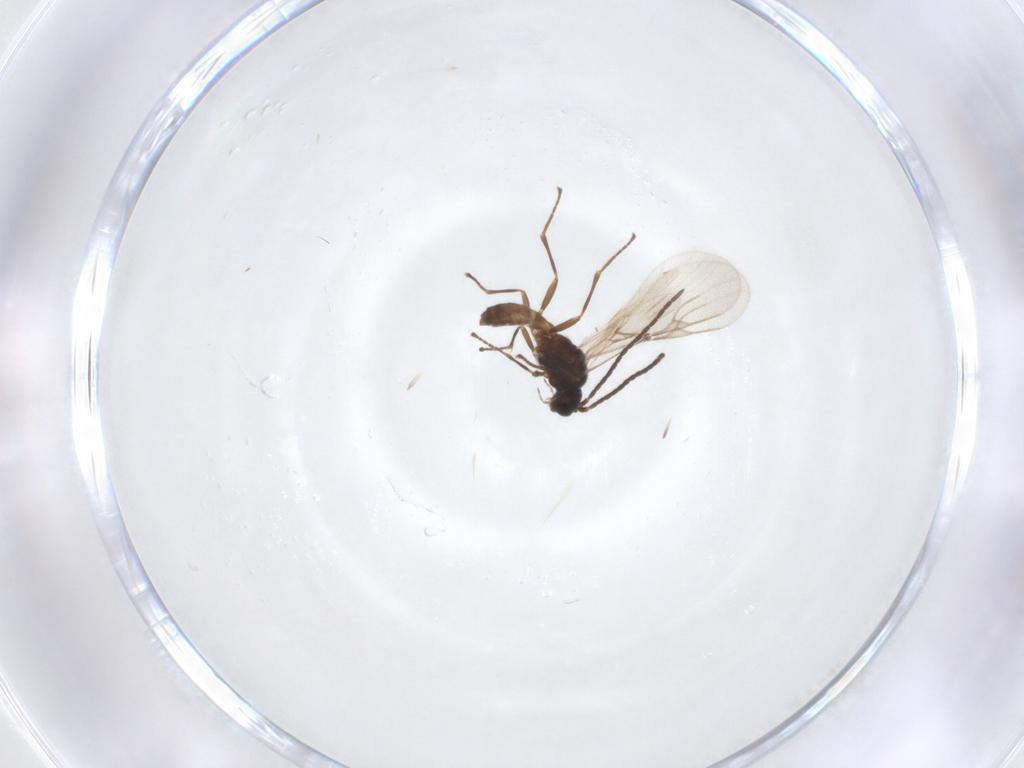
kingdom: Animalia
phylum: Arthropoda
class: Insecta
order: Hymenoptera
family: Braconidae
